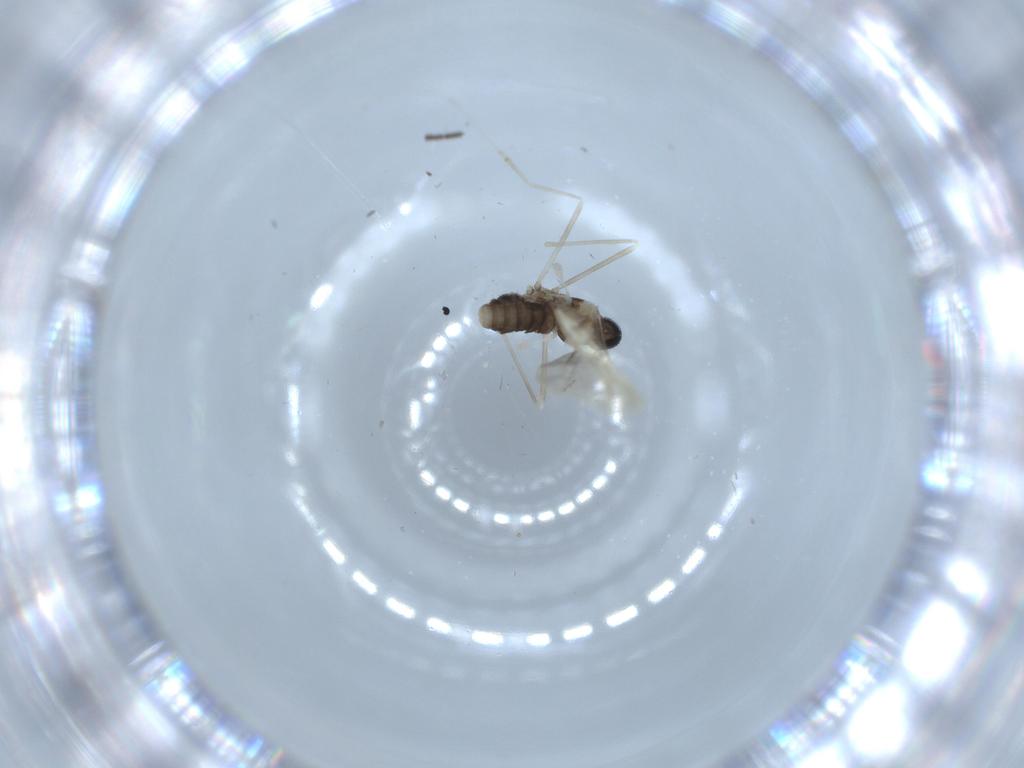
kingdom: Animalia
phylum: Arthropoda
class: Insecta
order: Diptera
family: Cecidomyiidae
